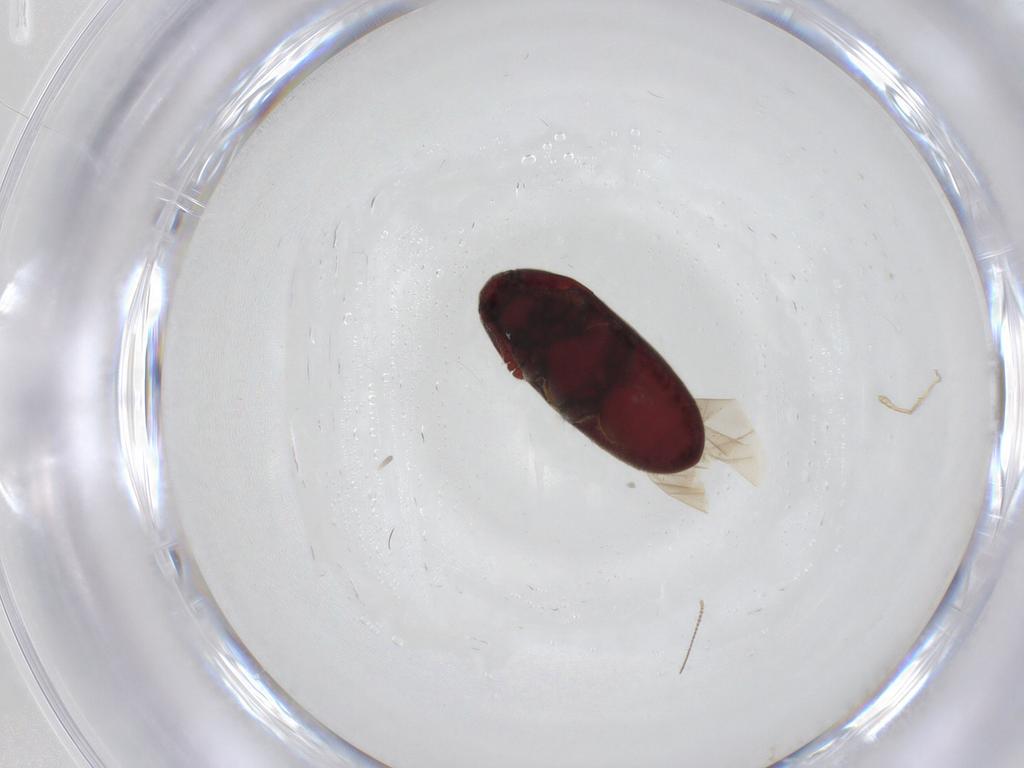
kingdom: Animalia
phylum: Arthropoda
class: Insecta
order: Coleoptera
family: Throscidae
